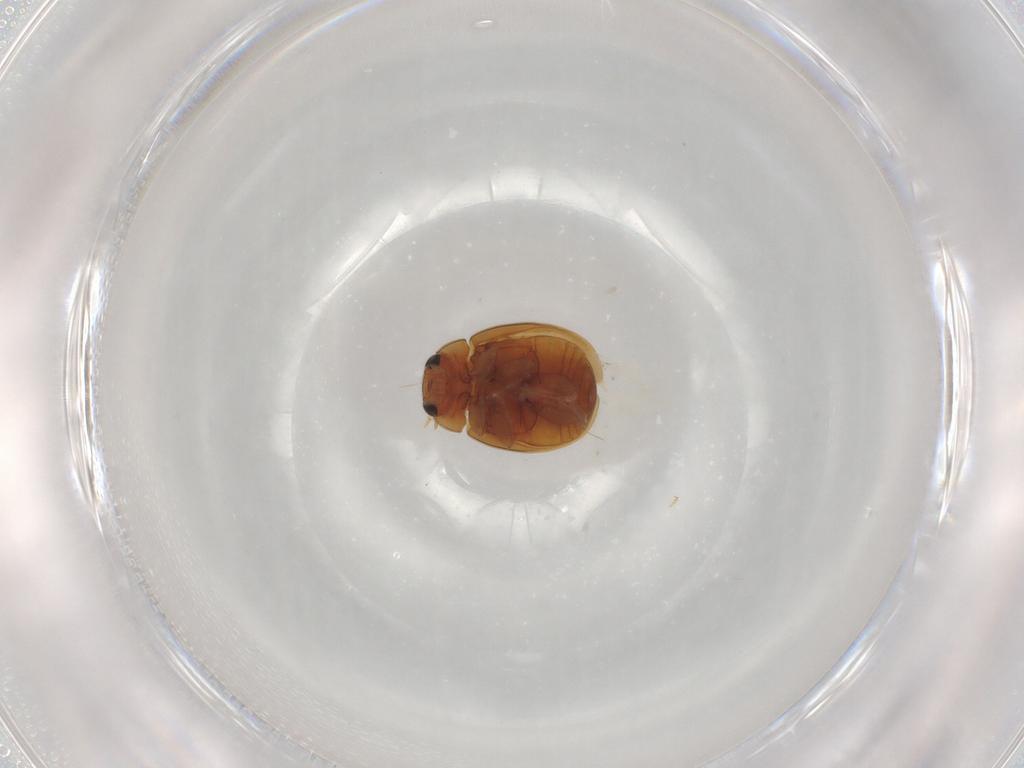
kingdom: Animalia
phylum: Arthropoda
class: Insecta
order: Coleoptera
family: Coccinellidae
